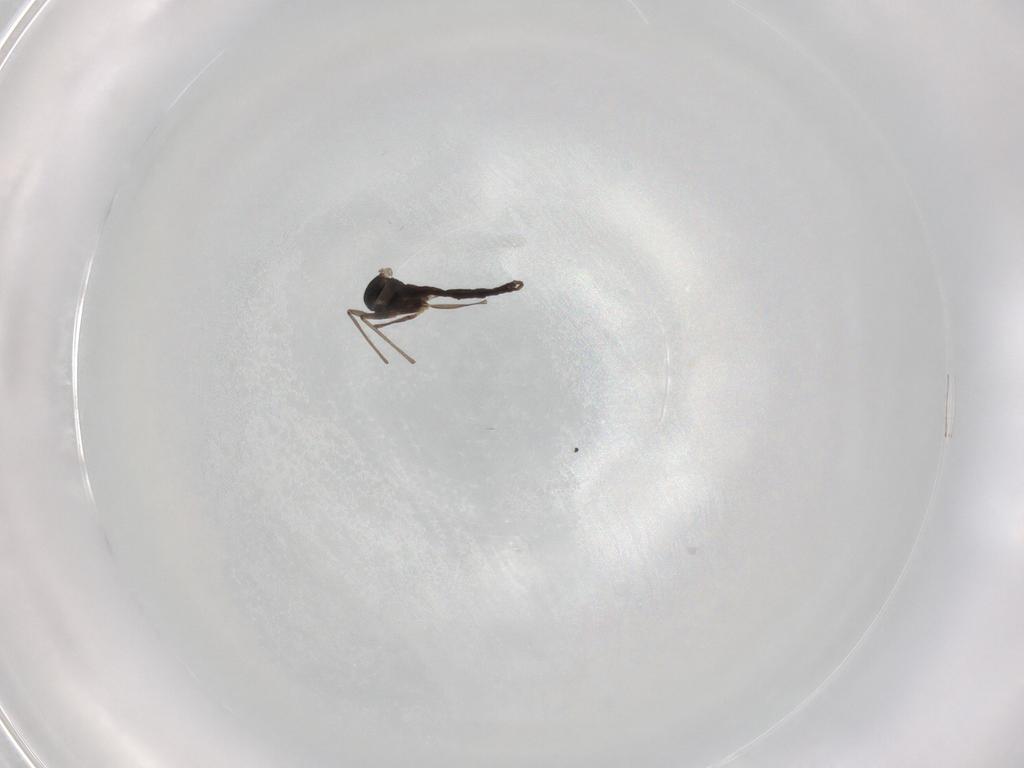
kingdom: Animalia
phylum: Arthropoda
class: Insecta
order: Diptera
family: Chironomidae
